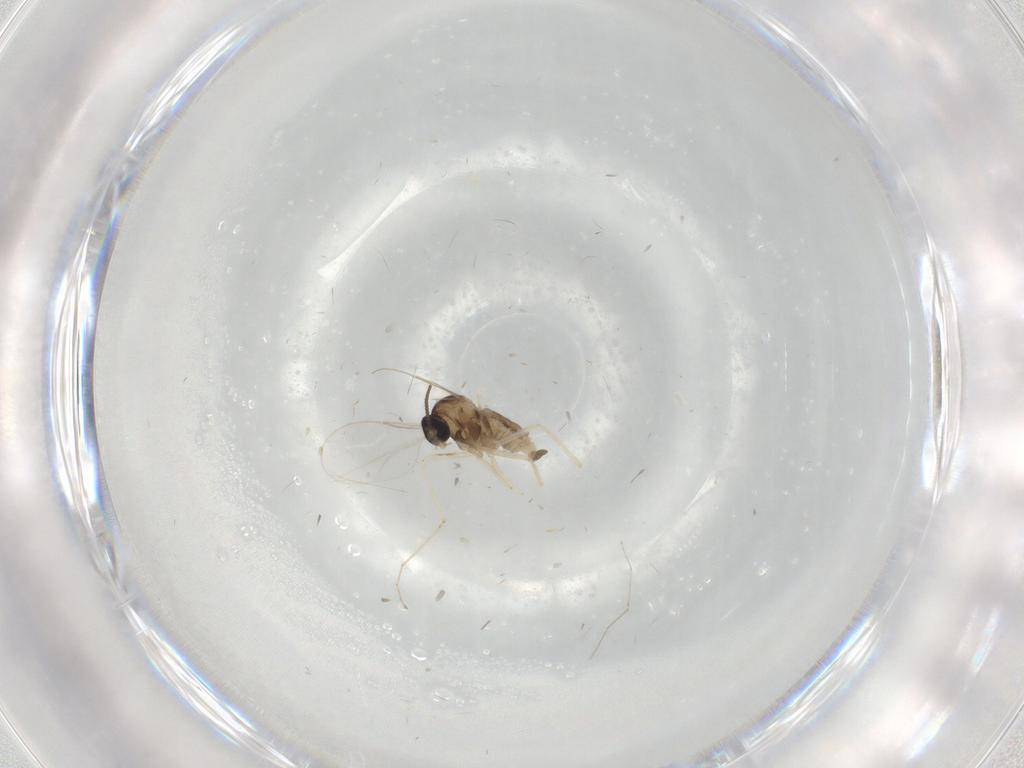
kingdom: Animalia
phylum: Arthropoda
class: Insecta
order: Diptera
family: Cecidomyiidae
